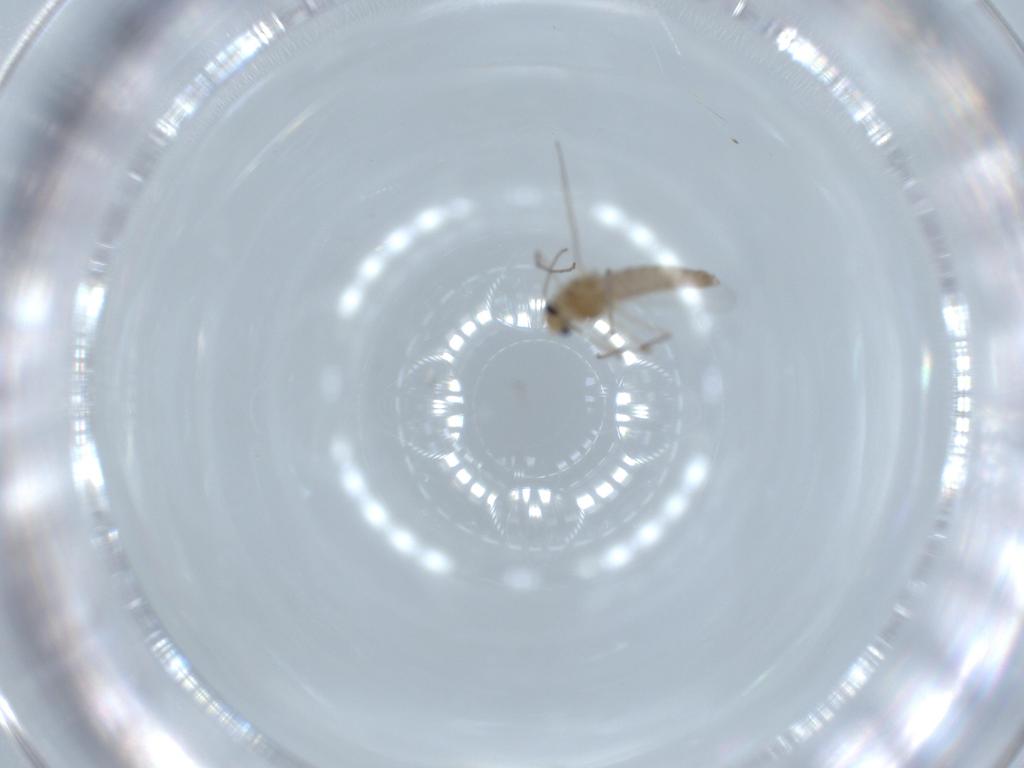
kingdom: Animalia
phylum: Arthropoda
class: Insecta
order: Diptera
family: Chironomidae
